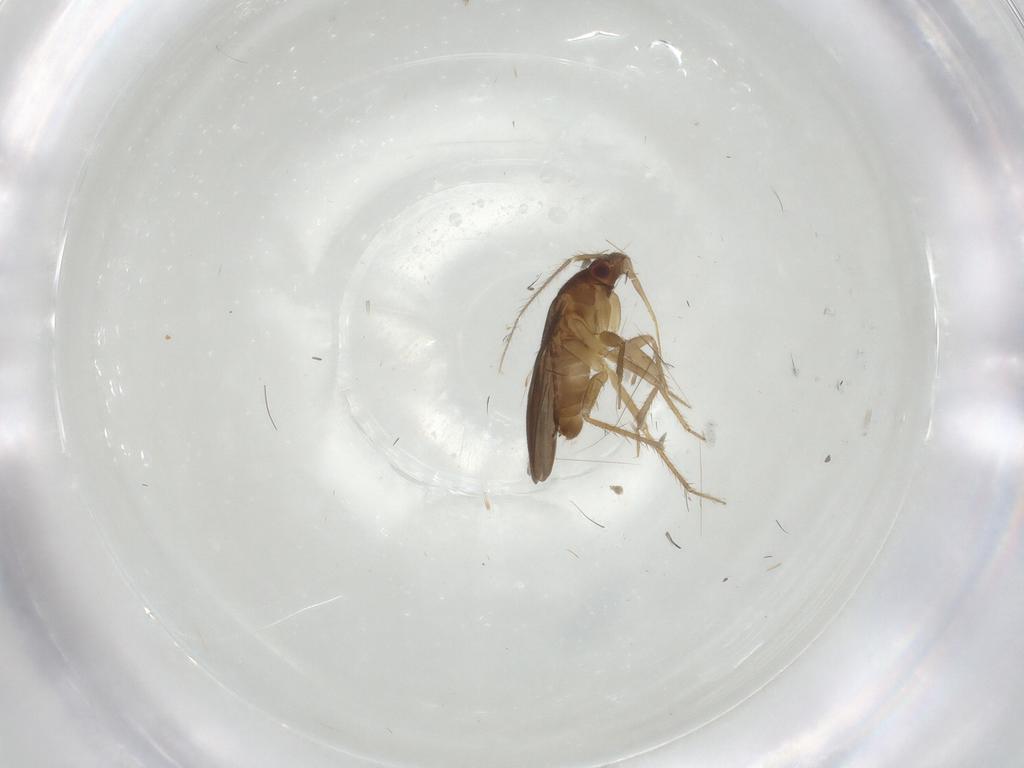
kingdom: Animalia
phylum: Arthropoda
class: Insecta
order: Hemiptera
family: Ceratocombidae
